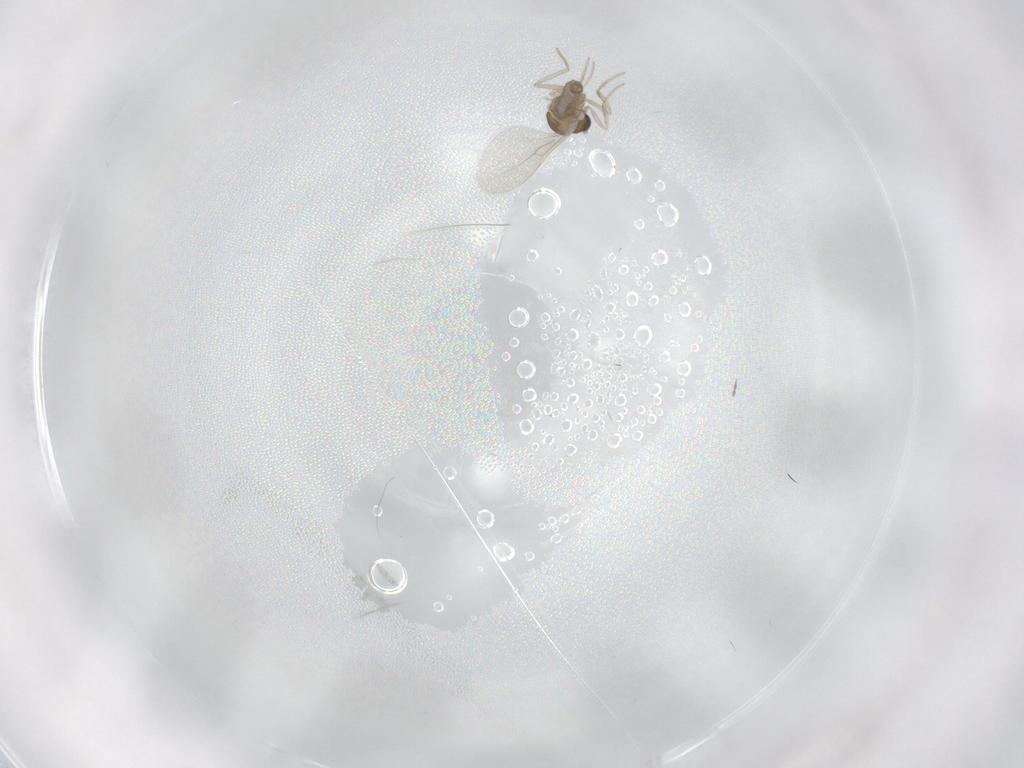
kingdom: Animalia
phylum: Arthropoda
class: Insecta
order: Diptera
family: Cecidomyiidae
